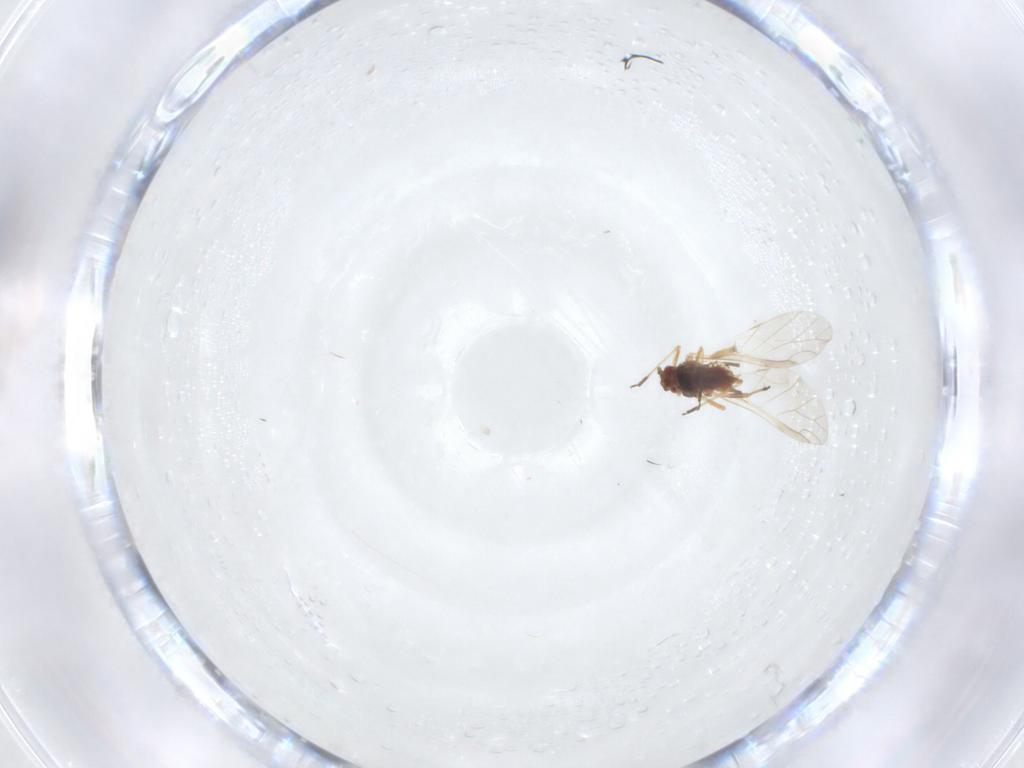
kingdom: Animalia
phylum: Arthropoda
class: Insecta
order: Hemiptera
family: Aphididae
